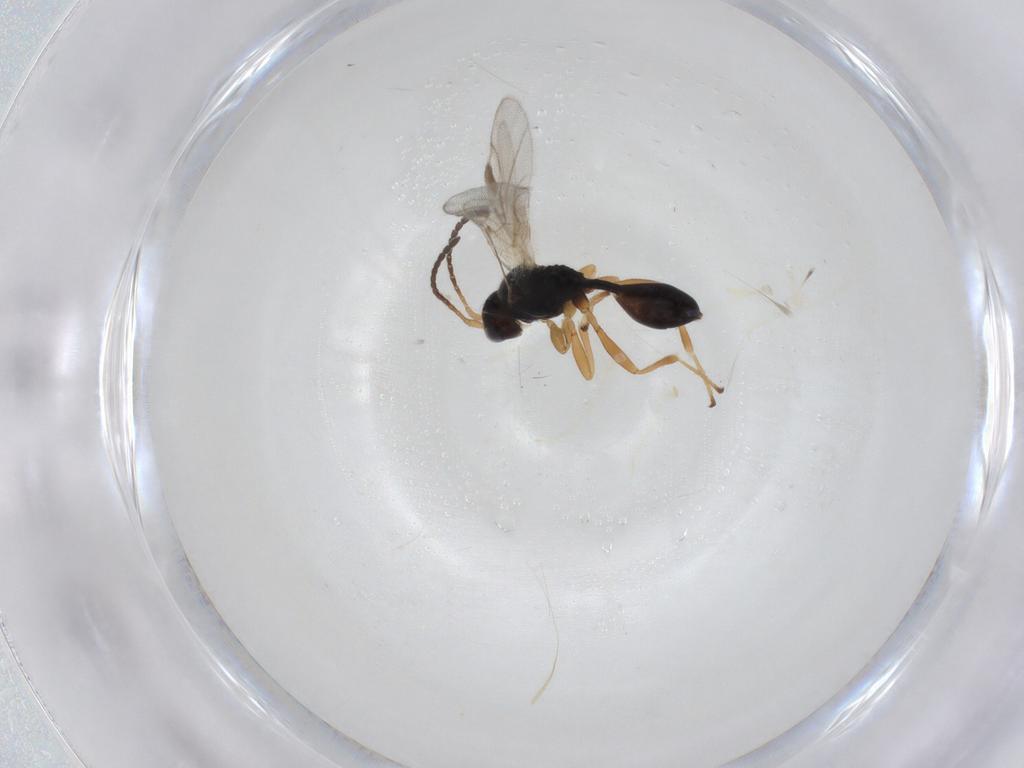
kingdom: Animalia
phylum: Arthropoda
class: Insecta
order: Hymenoptera
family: Braconidae
